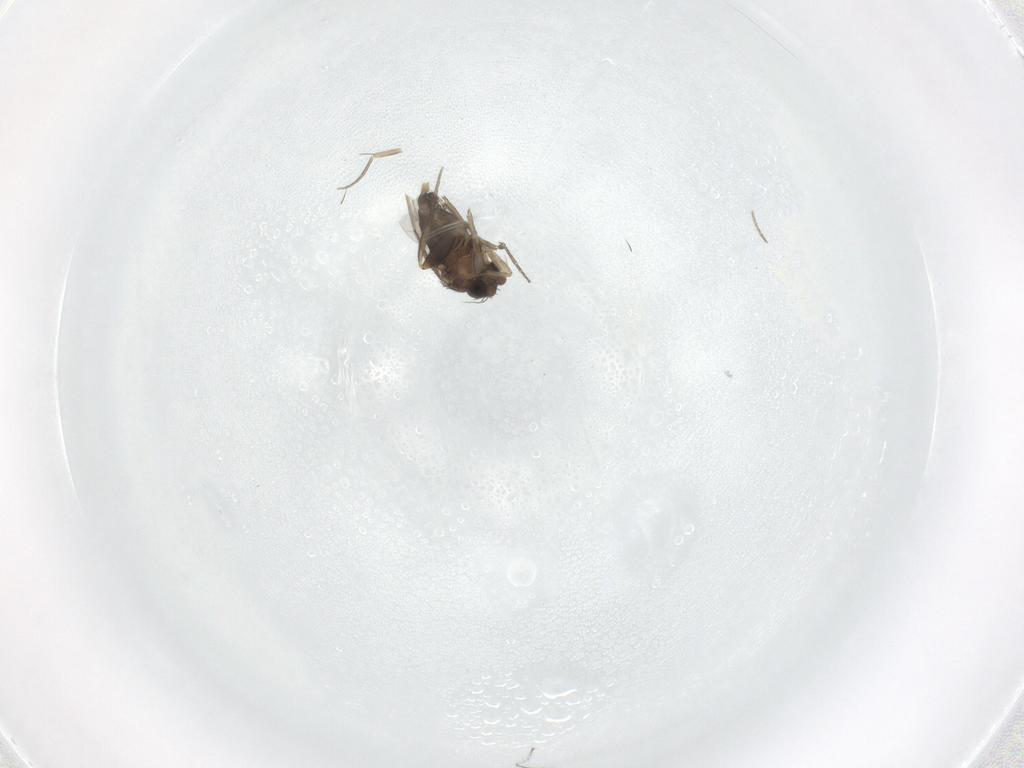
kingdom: Animalia
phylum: Arthropoda
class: Insecta
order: Diptera
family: Phoridae
